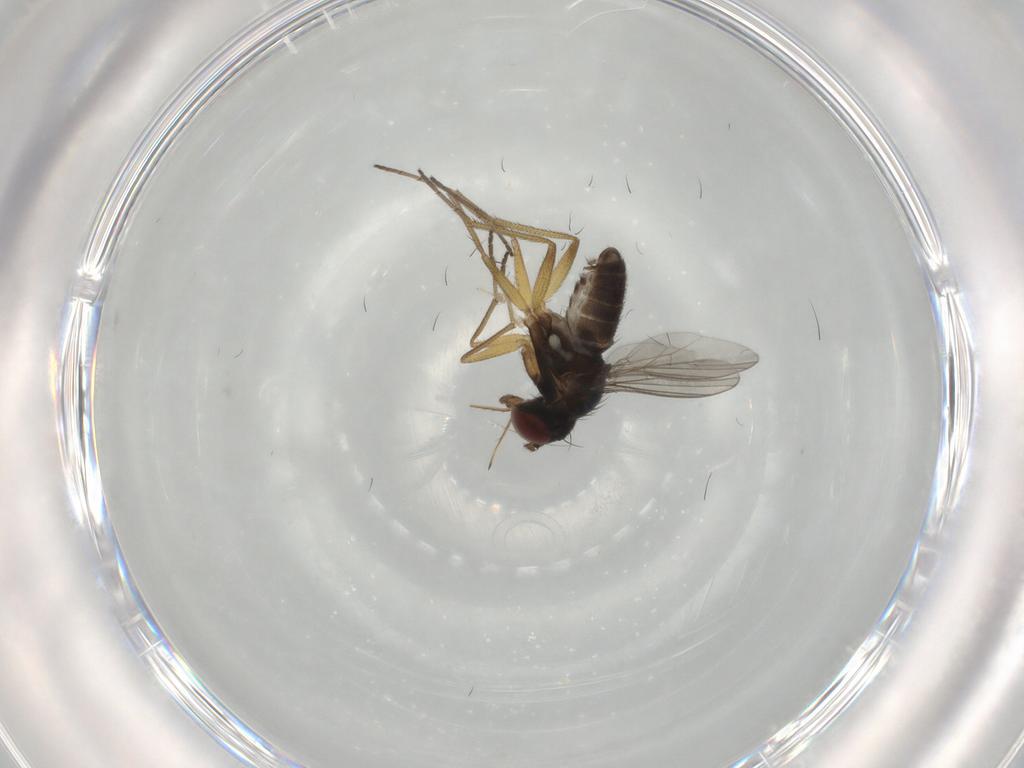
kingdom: Animalia
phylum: Arthropoda
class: Insecta
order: Diptera
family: Dolichopodidae
